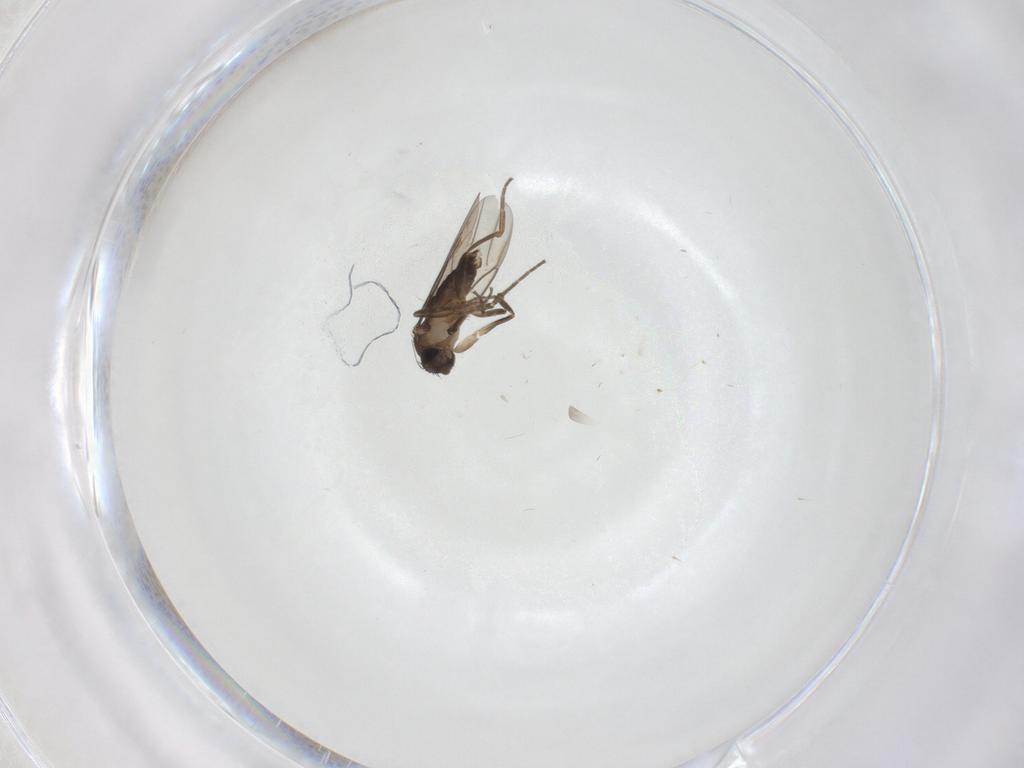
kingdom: Animalia
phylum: Arthropoda
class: Insecta
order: Diptera
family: Phoridae
